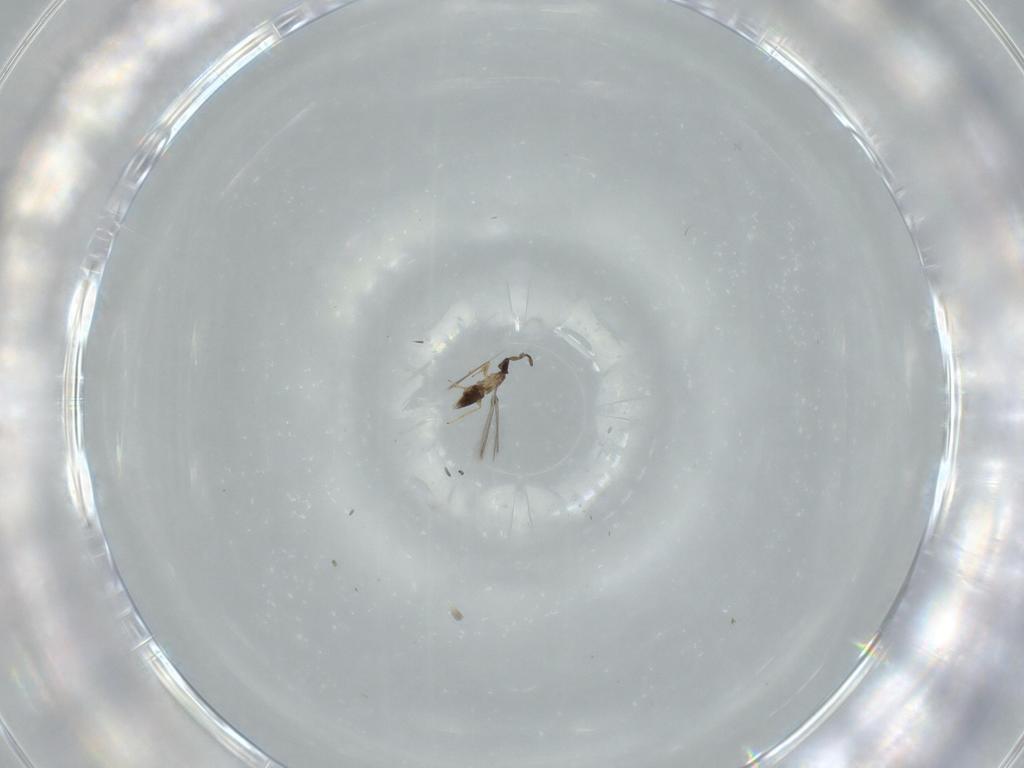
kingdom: Animalia
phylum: Arthropoda
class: Insecta
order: Hymenoptera
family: Mymaridae
